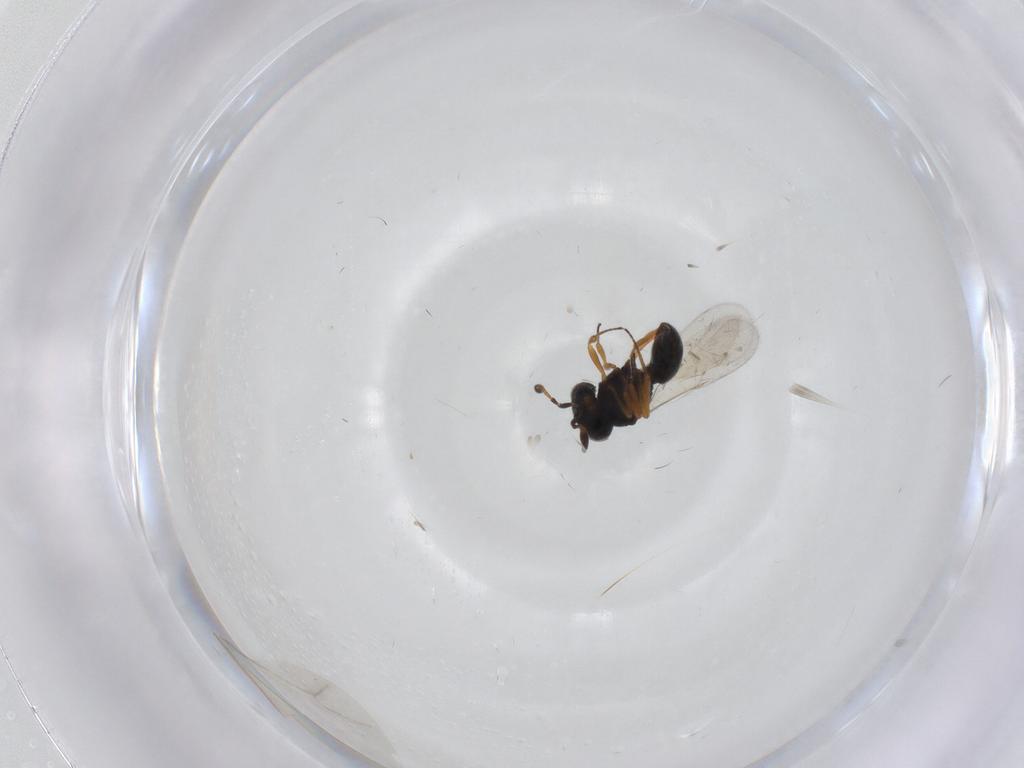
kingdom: Animalia
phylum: Arthropoda
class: Insecta
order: Hymenoptera
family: Scelionidae
